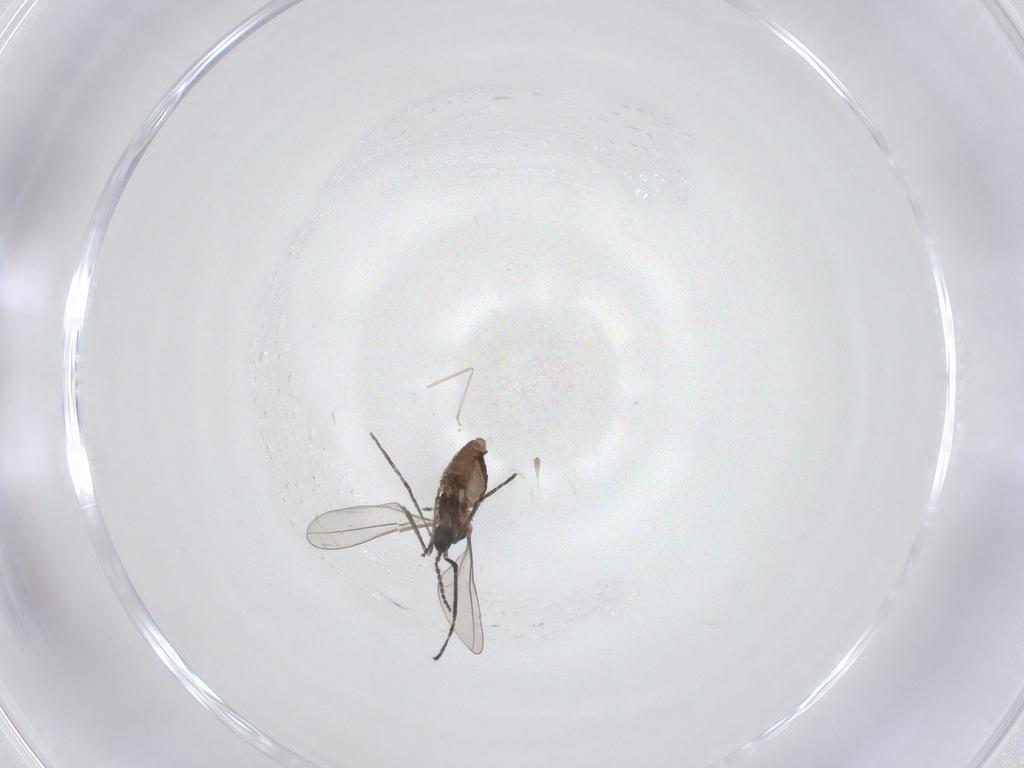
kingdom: Animalia
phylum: Arthropoda
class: Insecta
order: Diptera
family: Cecidomyiidae
